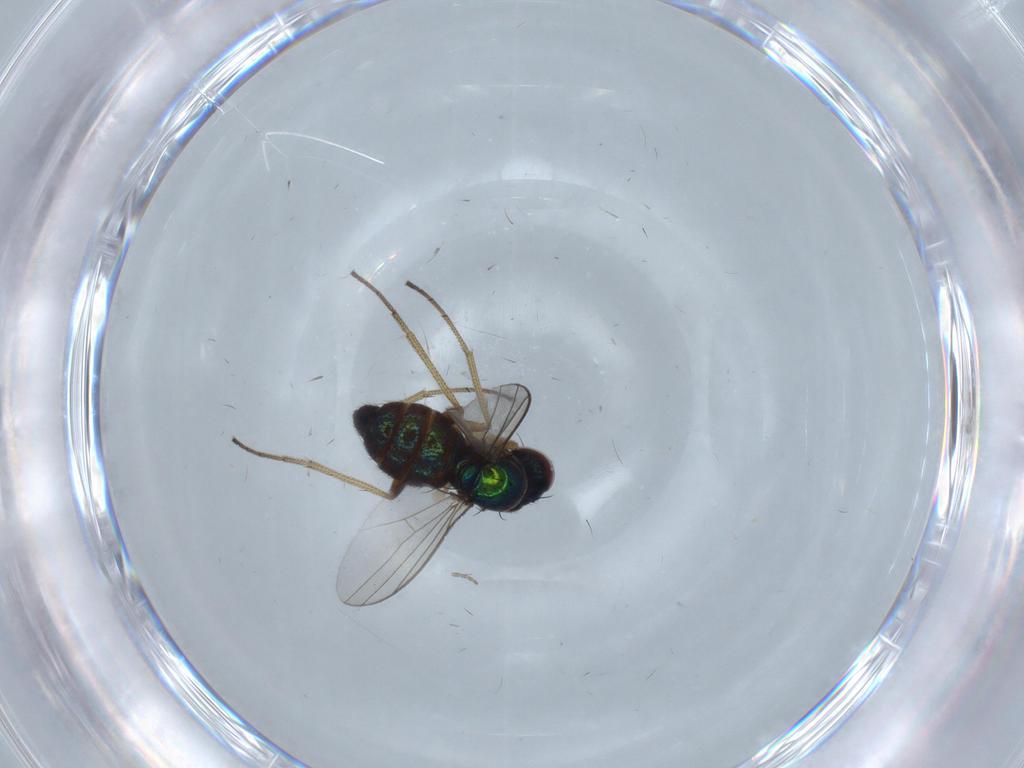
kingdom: Animalia
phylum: Arthropoda
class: Insecta
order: Diptera
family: Dolichopodidae
